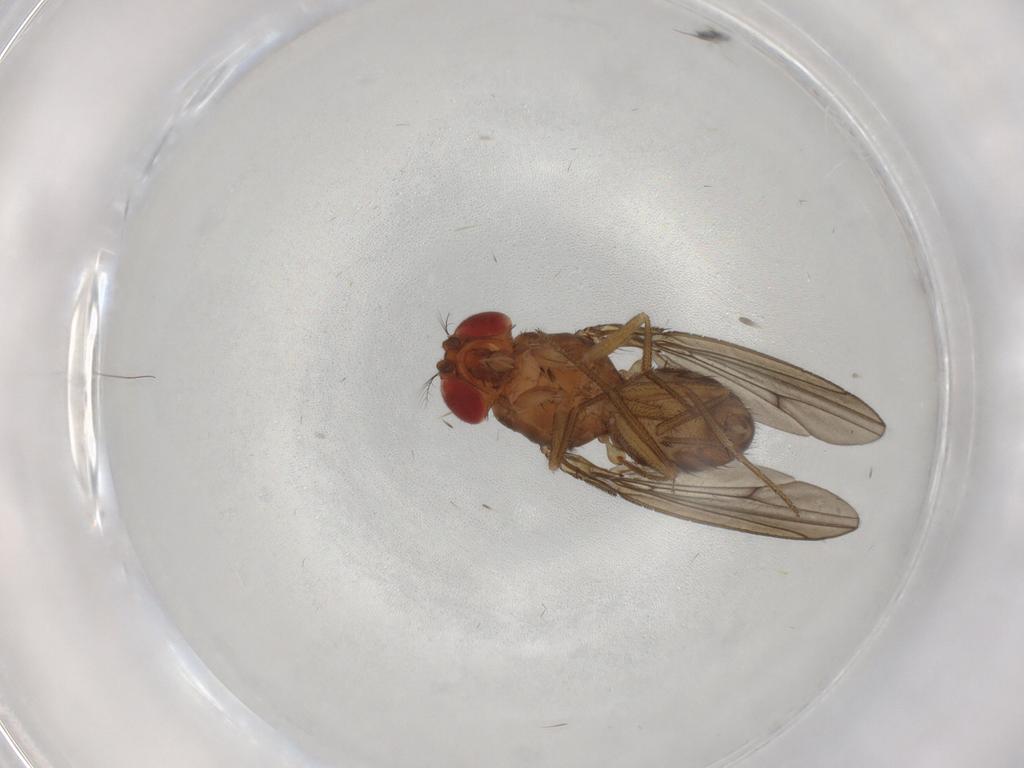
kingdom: Animalia
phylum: Arthropoda
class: Insecta
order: Diptera
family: Drosophilidae
